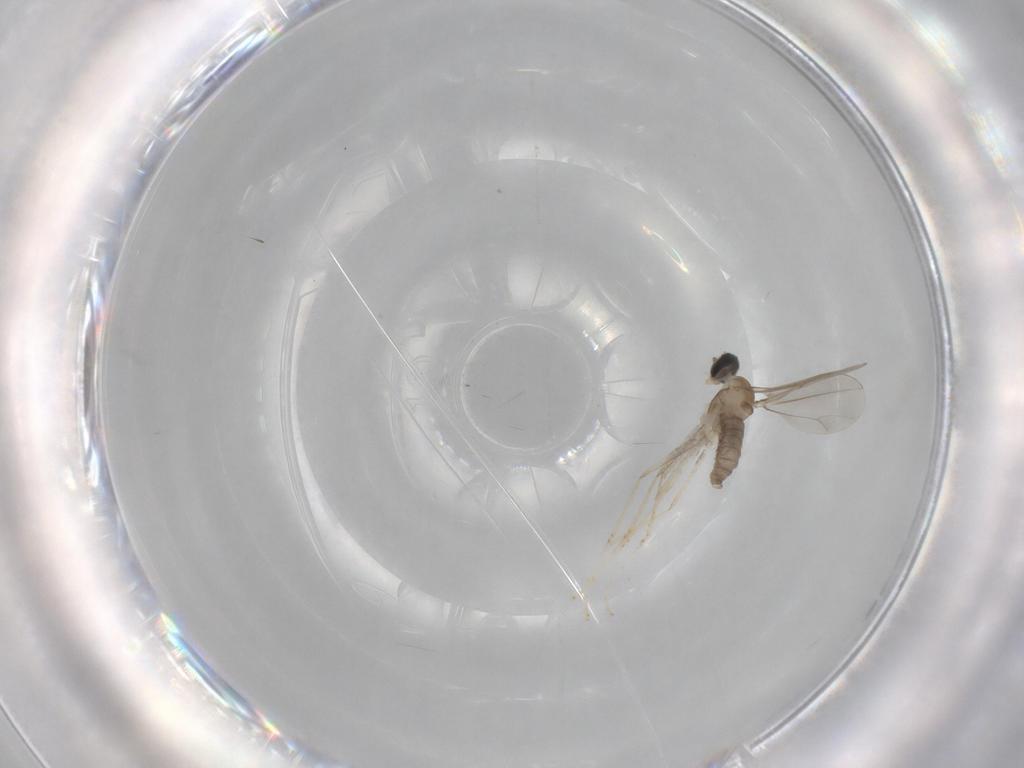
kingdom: Animalia
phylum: Arthropoda
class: Insecta
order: Diptera
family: Cecidomyiidae
